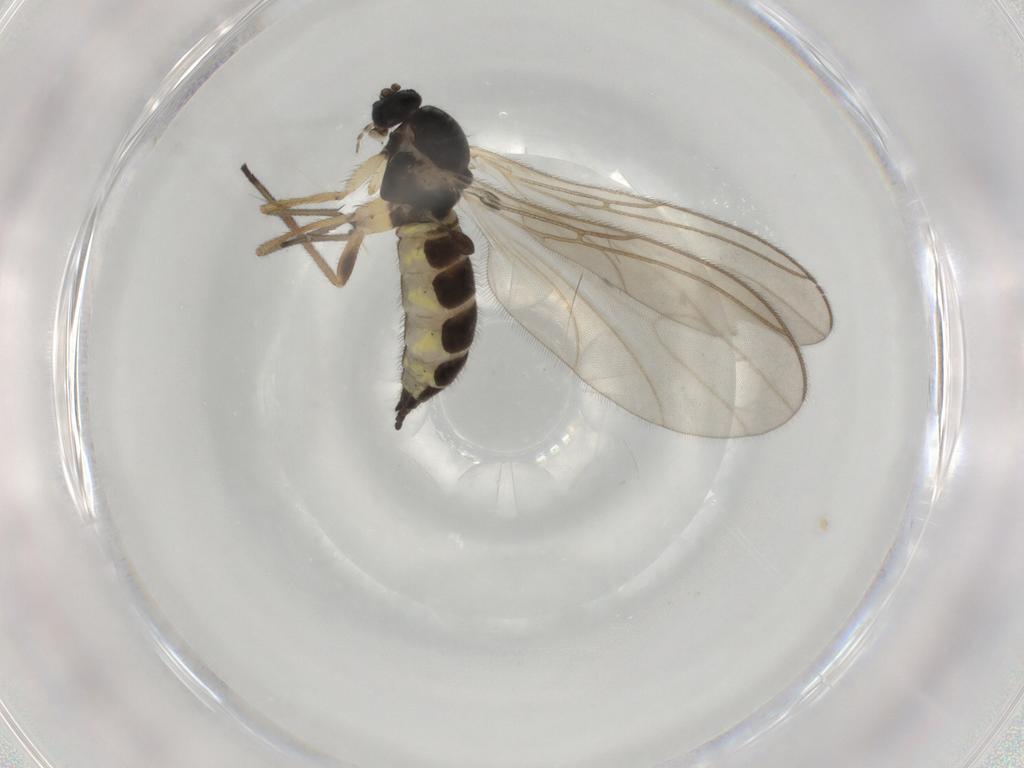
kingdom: Animalia
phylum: Arthropoda
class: Insecta
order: Diptera
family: Sciaridae
